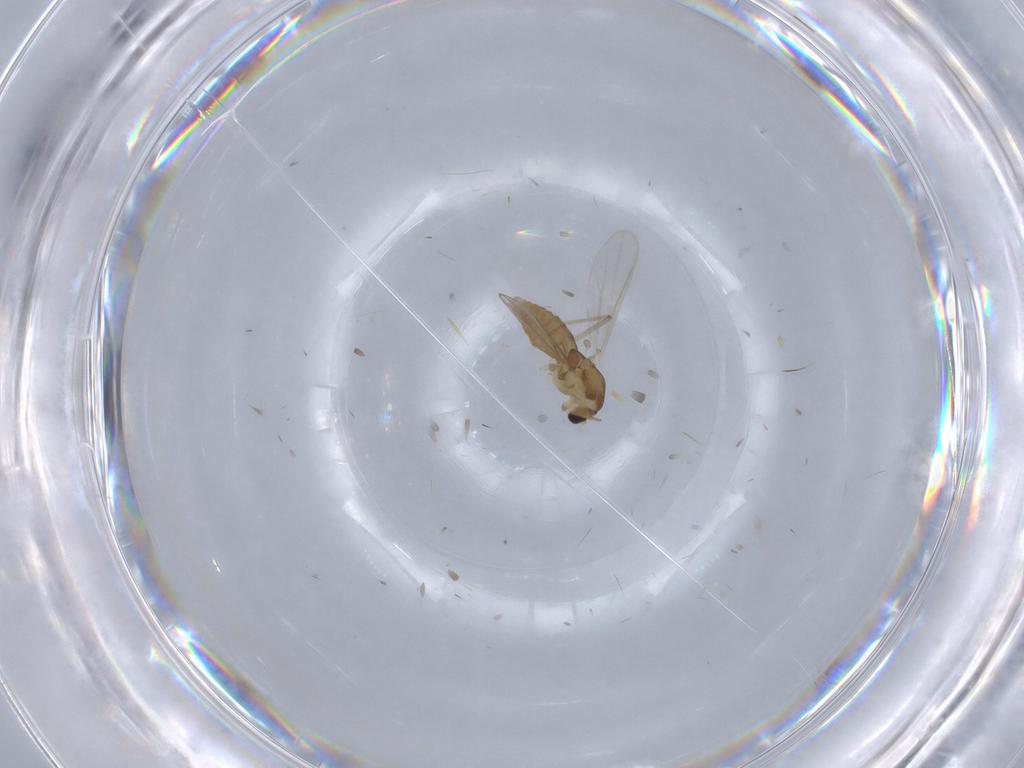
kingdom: Animalia
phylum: Arthropoda
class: Insecta
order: Diptera
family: Chironomidae
